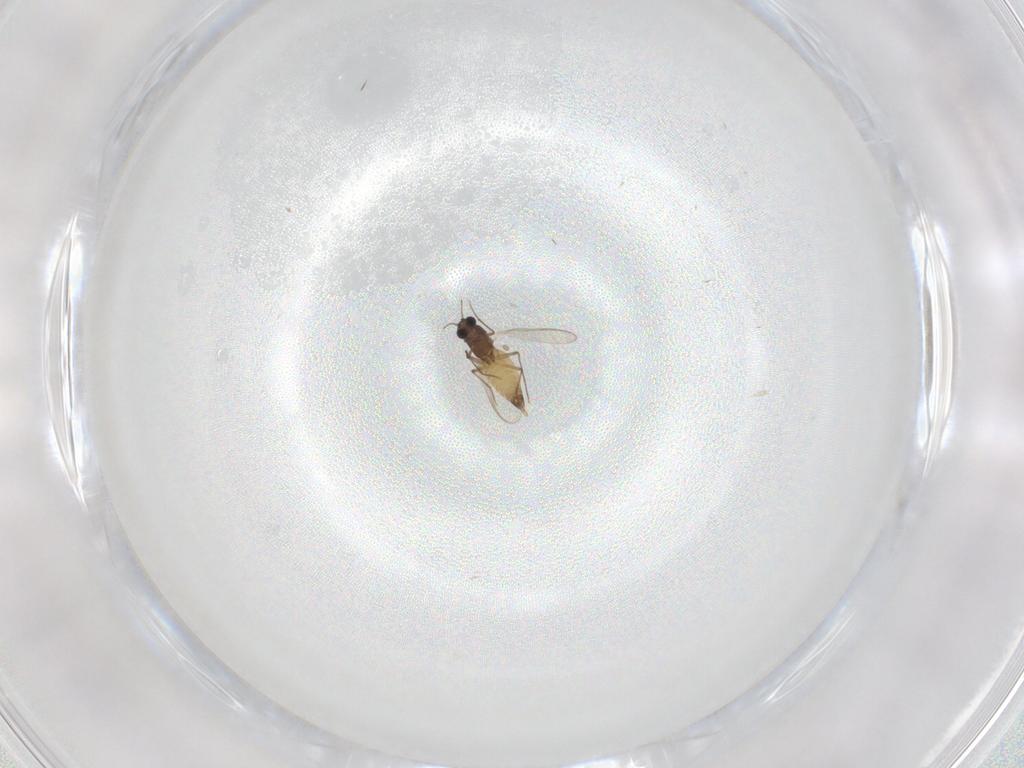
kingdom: Animalia
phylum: Arthropoda
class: Insecta
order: Diptera
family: Chironomidae
